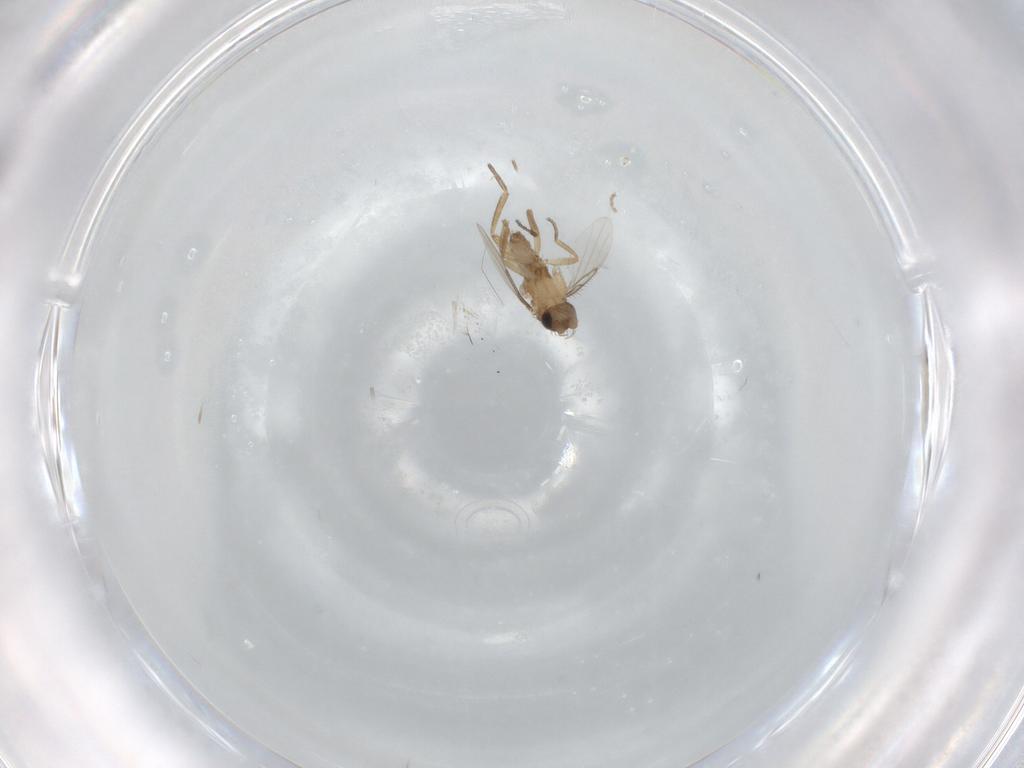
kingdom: Animalia
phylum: Arthropoda
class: Insecta
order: Diptera
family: Phoridae
